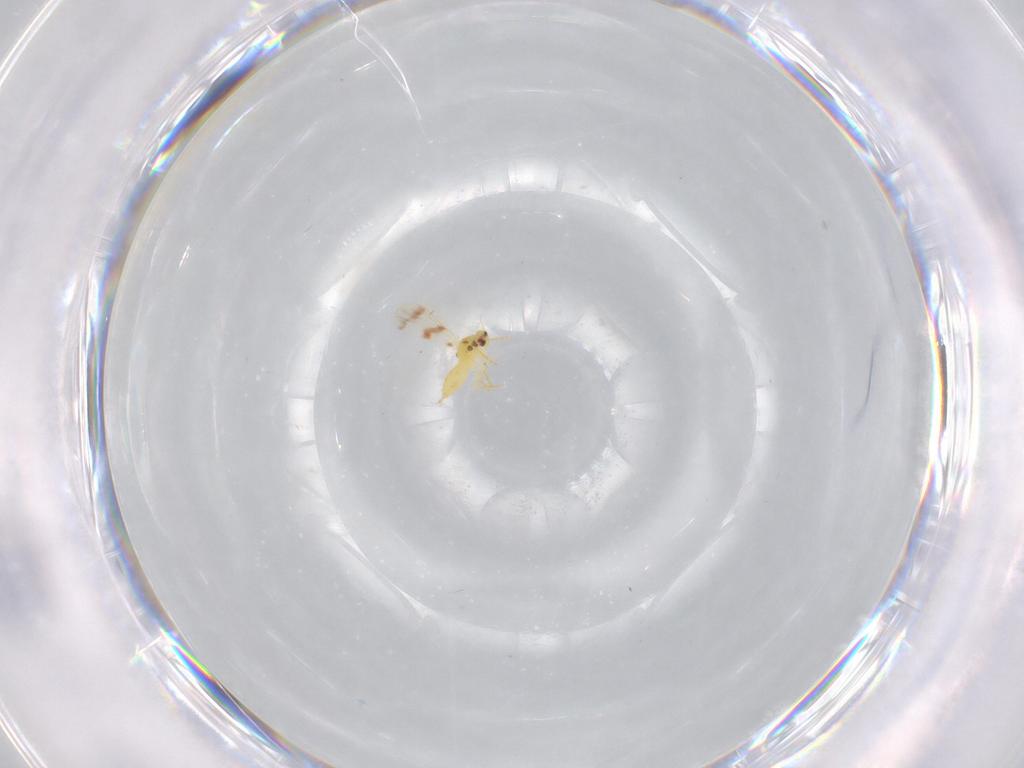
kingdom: Animalia
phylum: Arthropoda
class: Insecta
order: Hemiptera
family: Aleyrodidae
